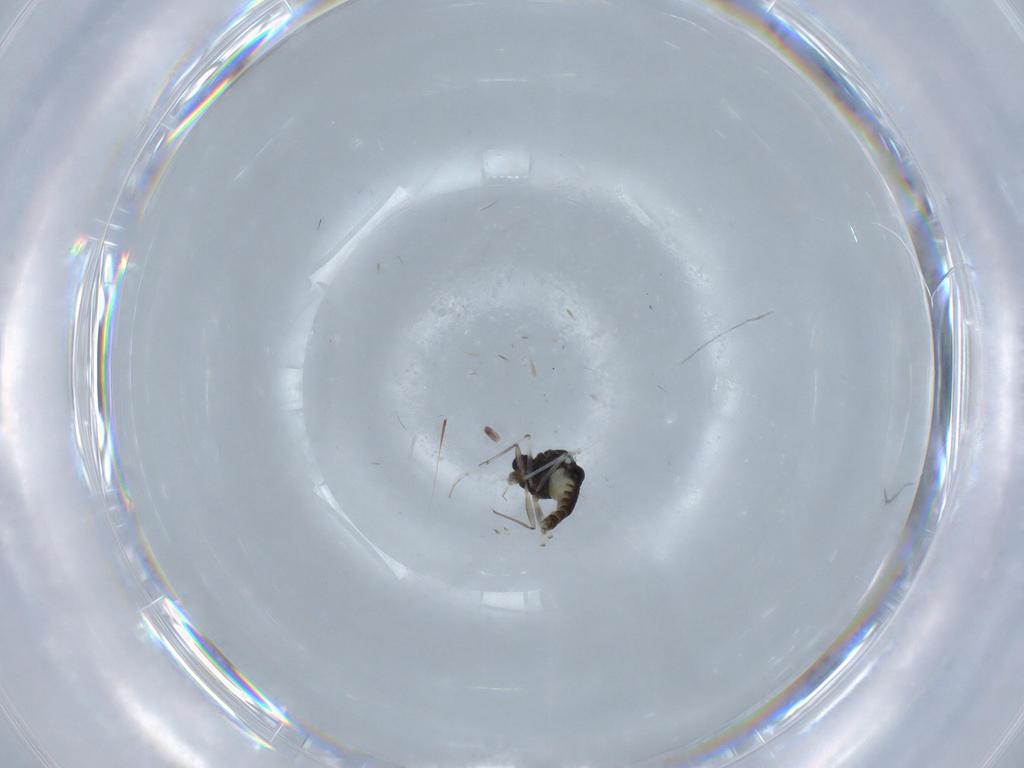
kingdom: Animalia
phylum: Arthropoda
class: Insecta
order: Diptera
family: Chironomidae
